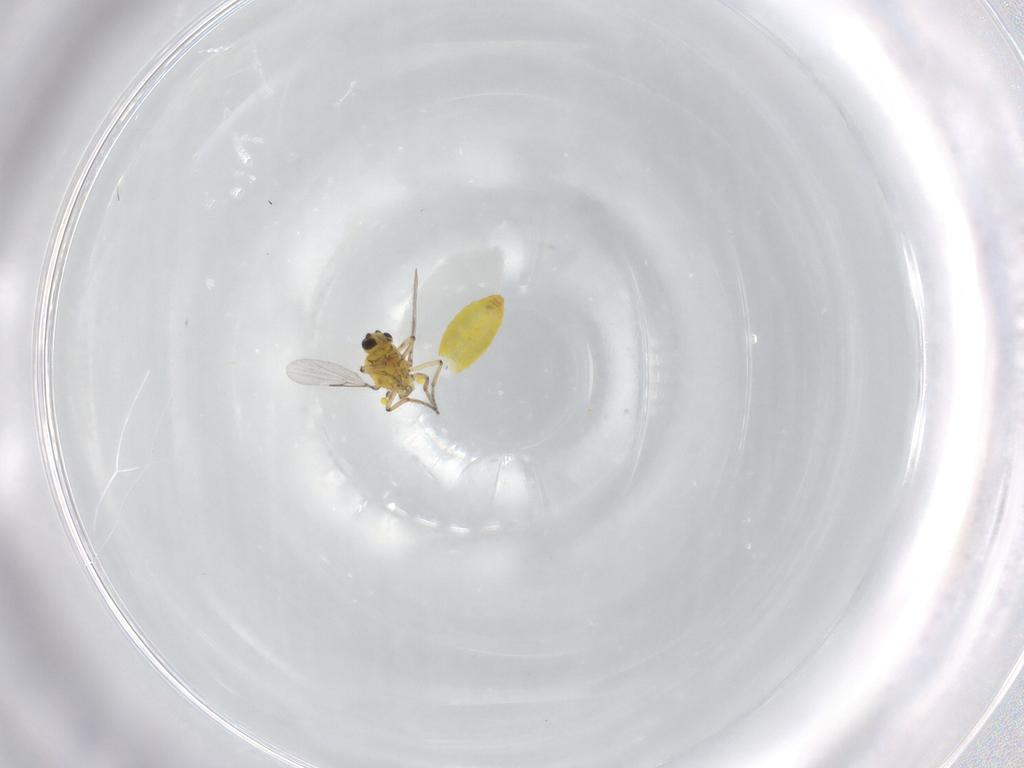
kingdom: Animalia
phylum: Arthropoda
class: Insecta
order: Diptera
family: Ceratopogonidae
